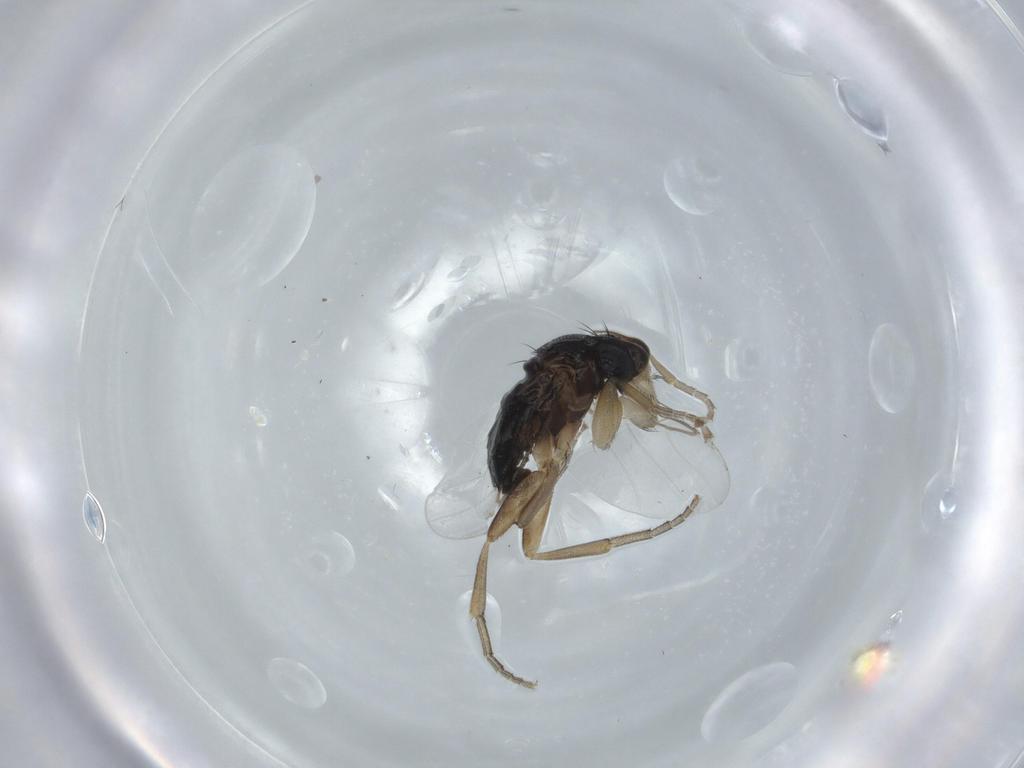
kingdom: Animalia
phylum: Arthropoda
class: Insecta
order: Diptera
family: Phoridae
